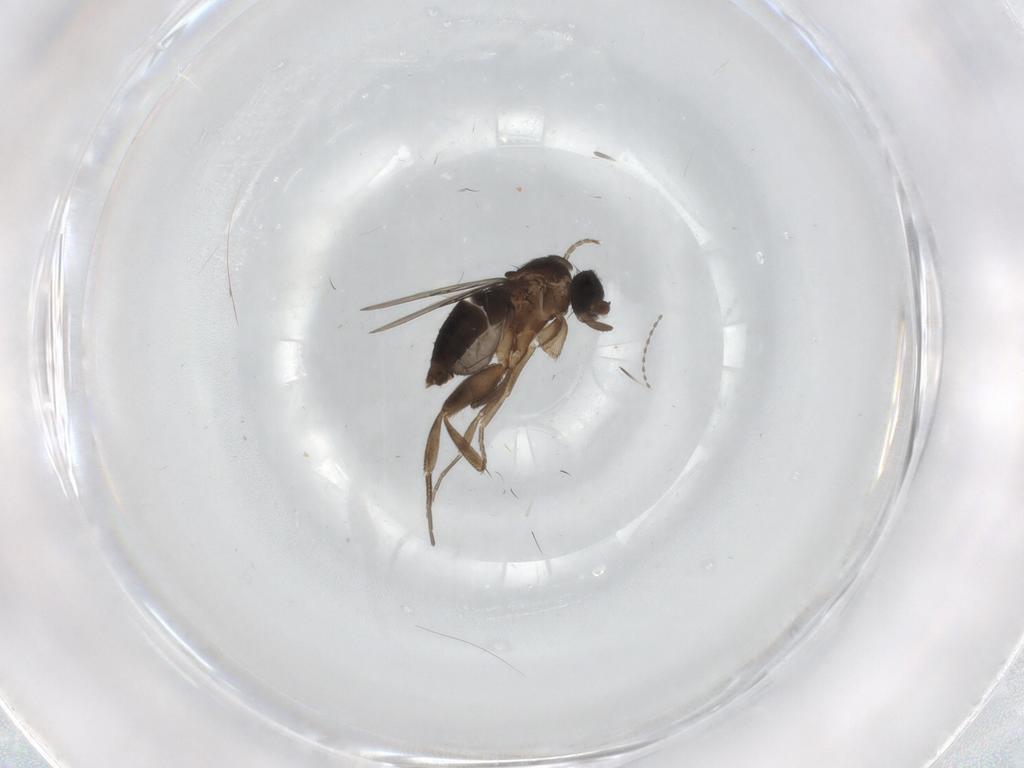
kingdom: Animalia
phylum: Arthropoda
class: Insecta
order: Diptera
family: Phoridae
